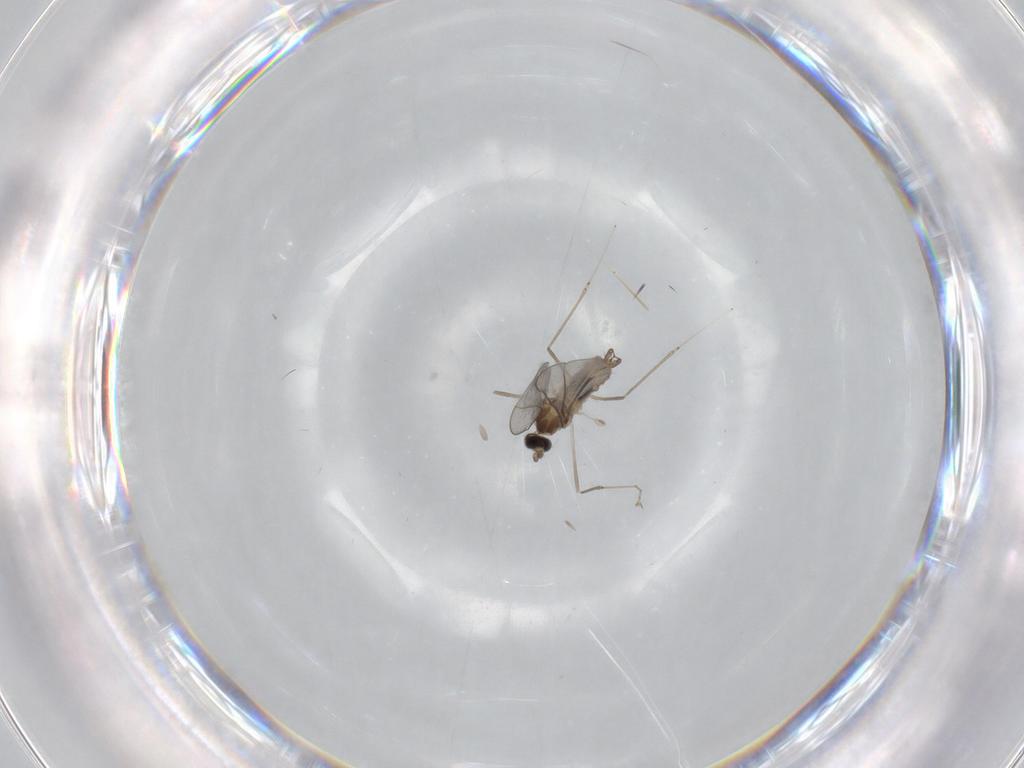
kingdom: Animalia
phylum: Arthropoda
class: Insecta
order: Diptera
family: Cecidomyiidae
